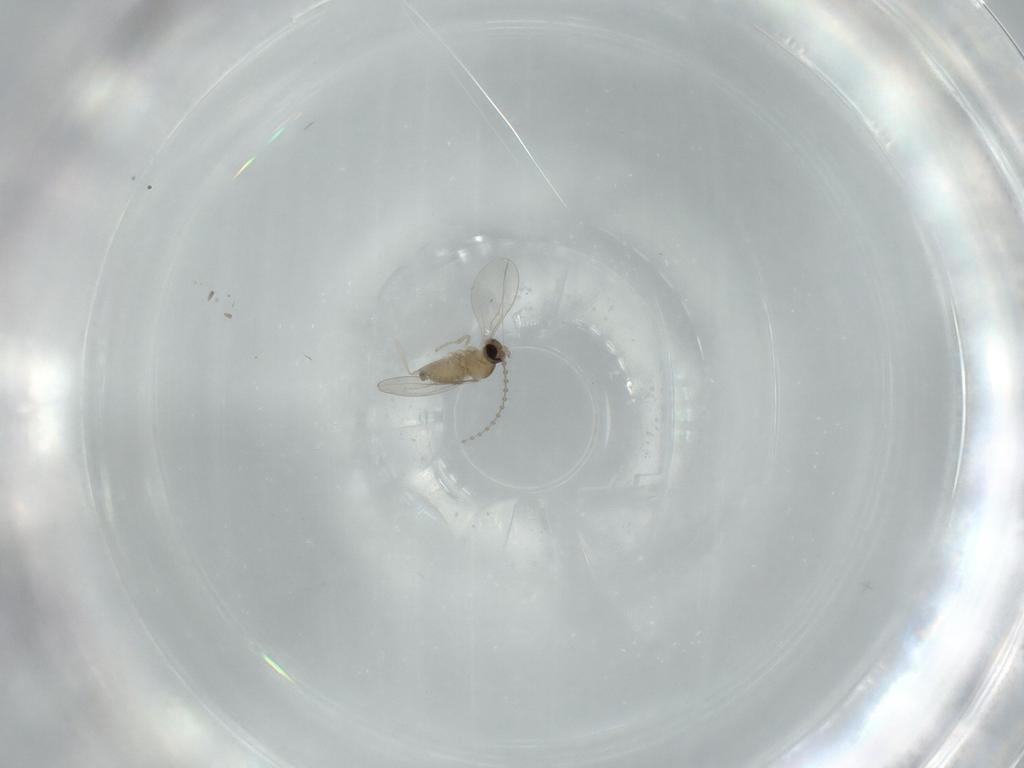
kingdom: Animalia
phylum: Arthropoda
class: Insecta
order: Diptera
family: Cecidomyiidae
